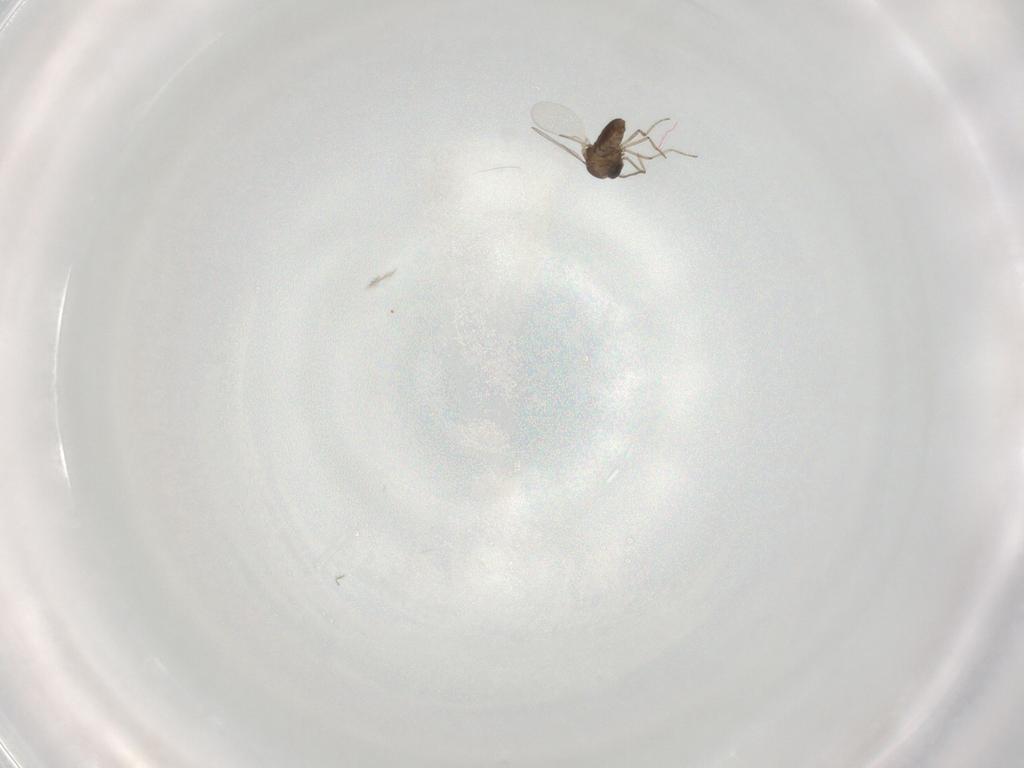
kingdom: Animalia
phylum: Arthropoda
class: Insecta
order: Diptera
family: Ceratopogonidae
